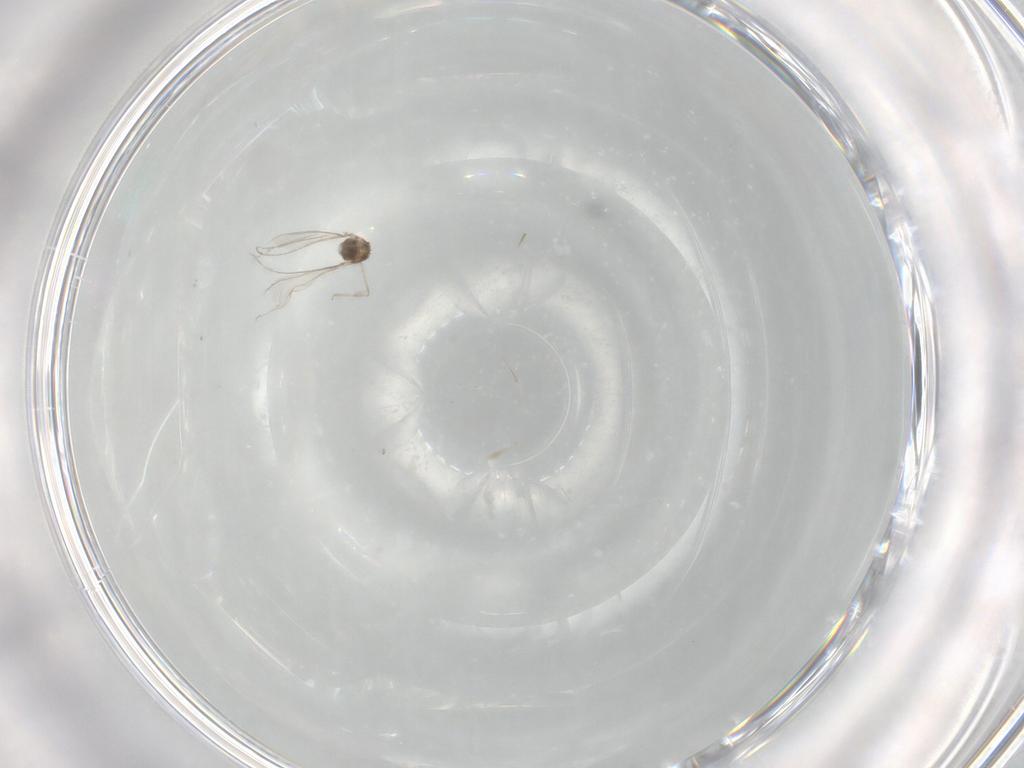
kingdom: Animalia
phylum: Arthropoda
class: Insecta
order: Diptera
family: Cecidomyiidae
